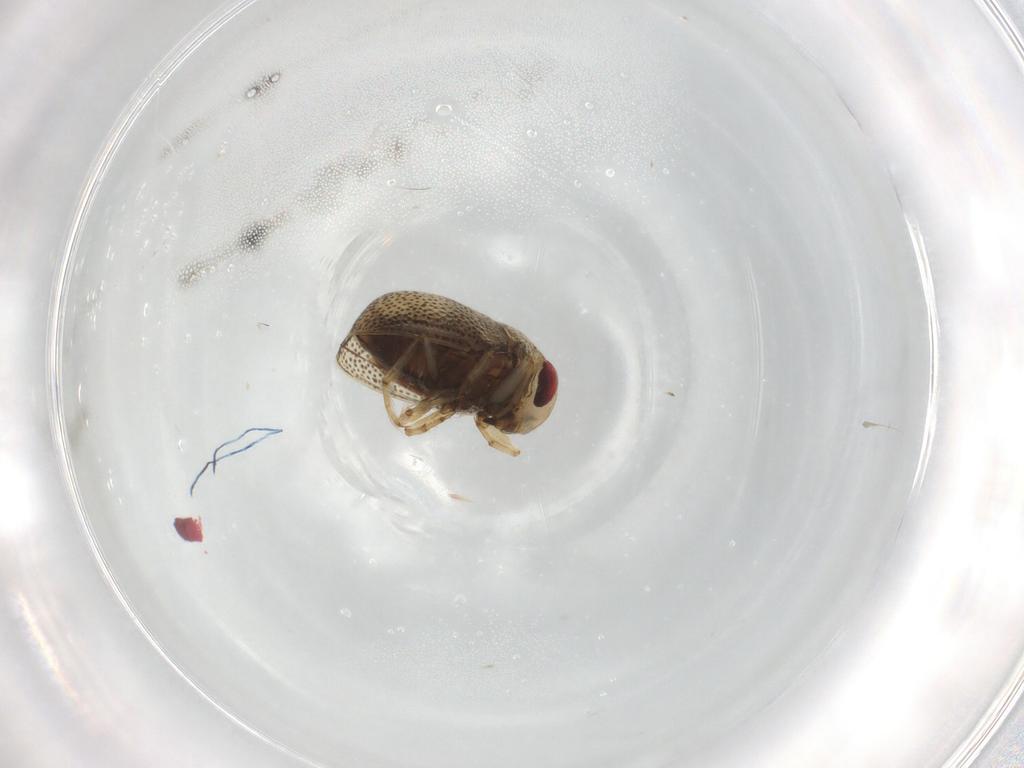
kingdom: Animalia
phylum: Arthropoda
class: Insecta
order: Hemiptera
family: Pleidae
